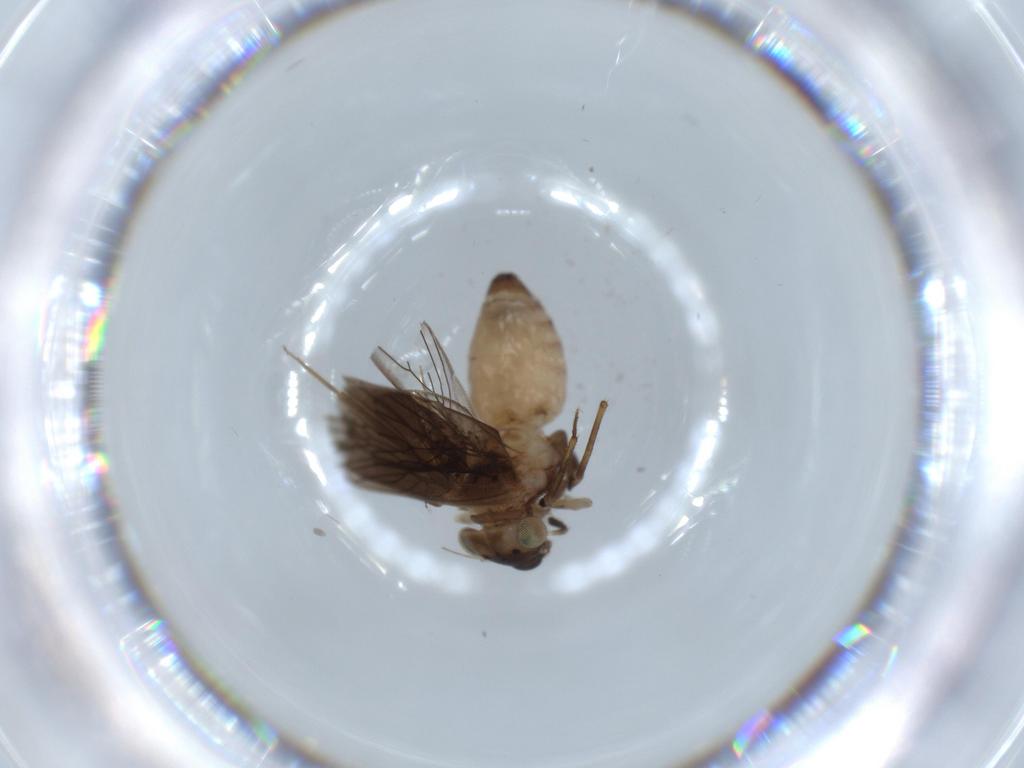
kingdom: Animalia
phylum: Arthropoda
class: Insecta
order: Psocodea
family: Lepidopsocidae
